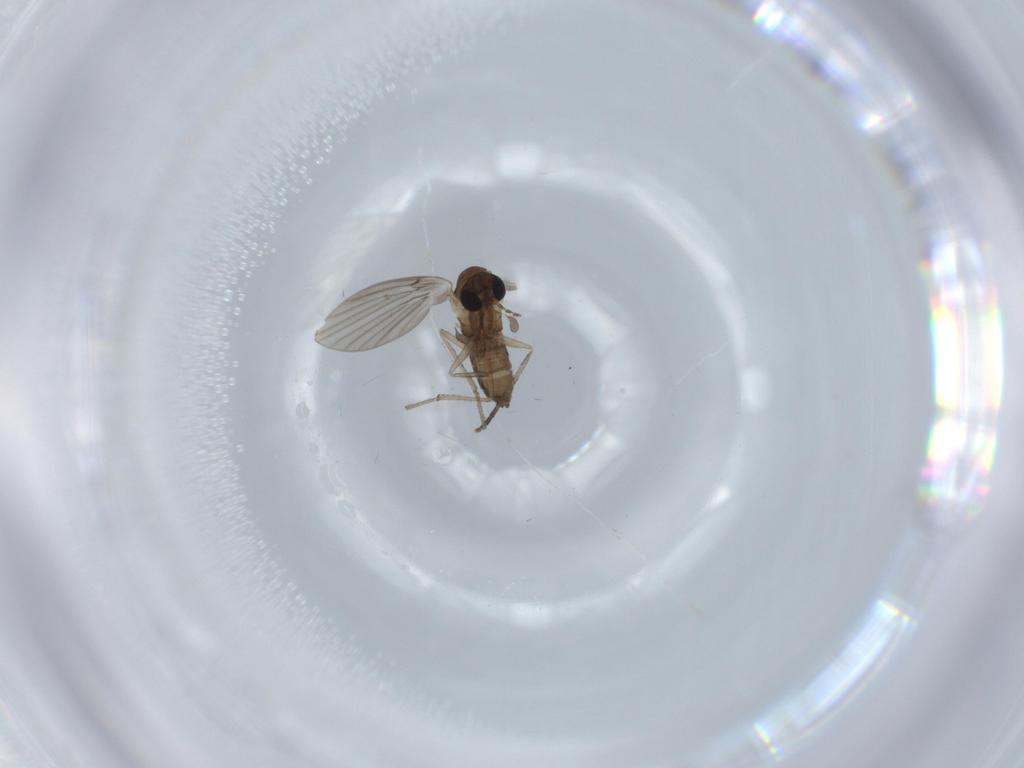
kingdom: Animalia
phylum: Arthropoda
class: Insecta
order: Diptera
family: Psychodidae
